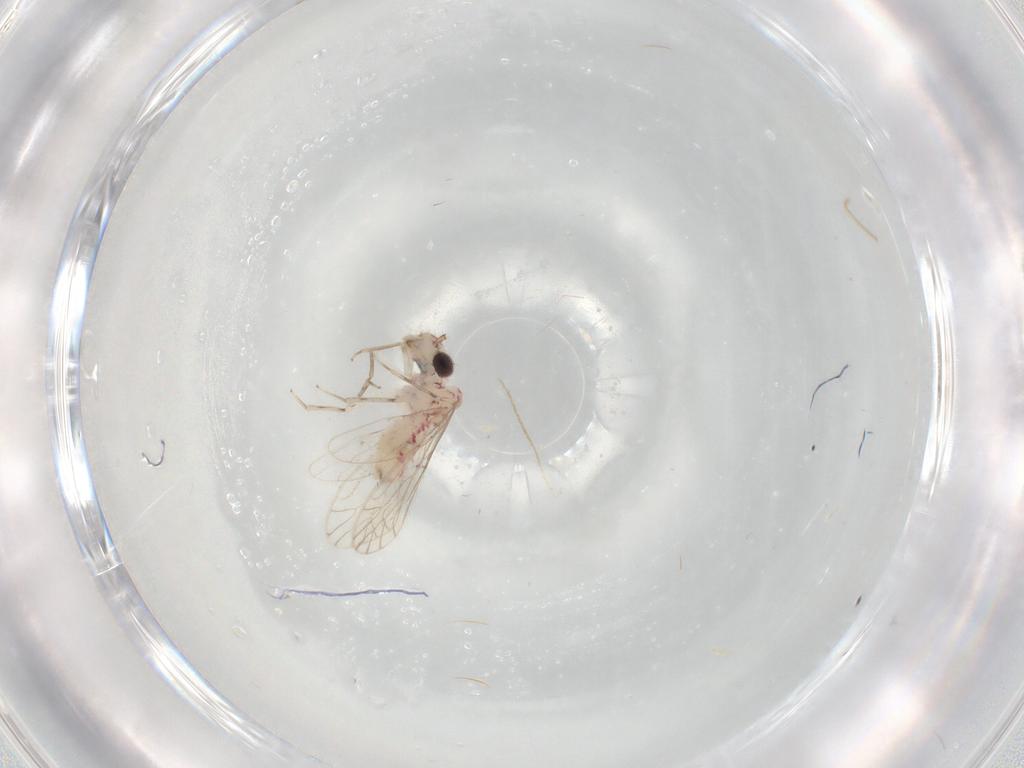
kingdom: Animalia
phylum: Arthropoda
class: Insecta
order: Psocodea
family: Caeciliusidae
